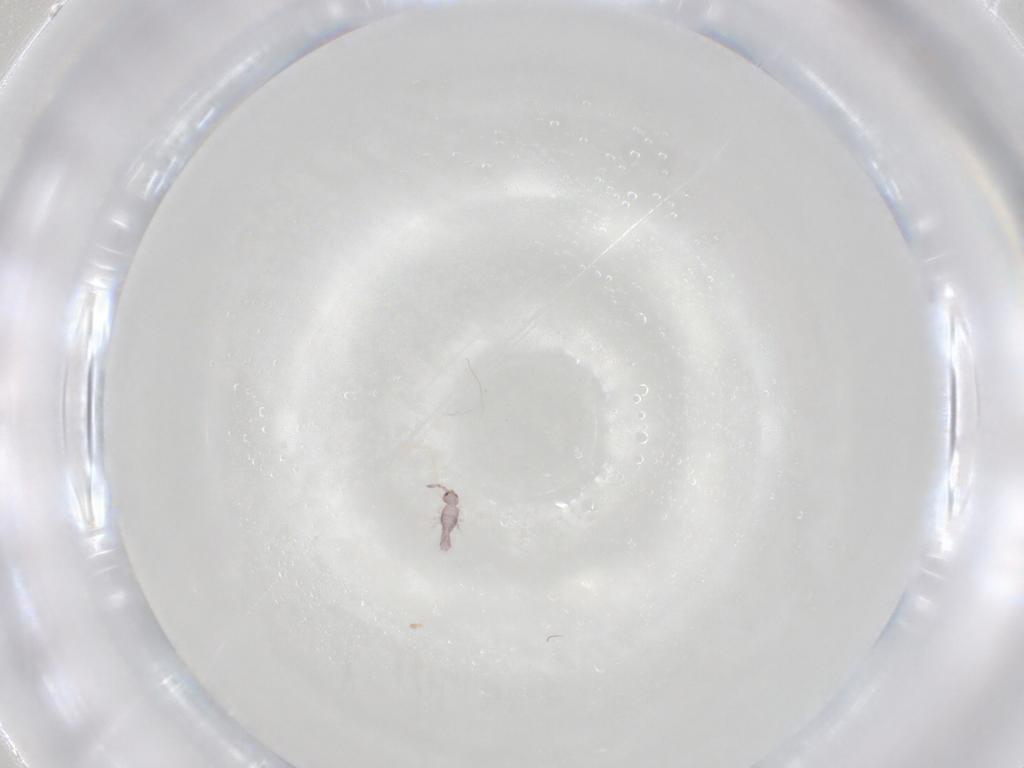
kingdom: Animalia
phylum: Arthropoda
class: Collembola
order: Entomobryomorpha
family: Entomobryidae
